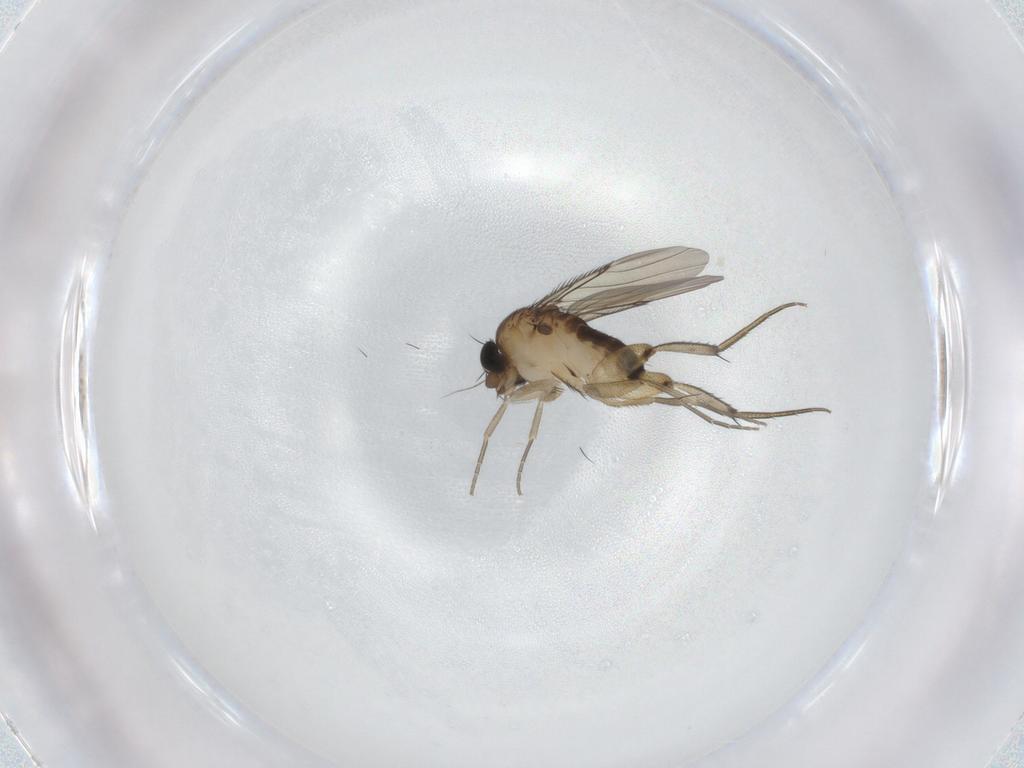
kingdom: Animalia
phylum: Arthropoda
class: Insecta
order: Diptera
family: Phoridae
